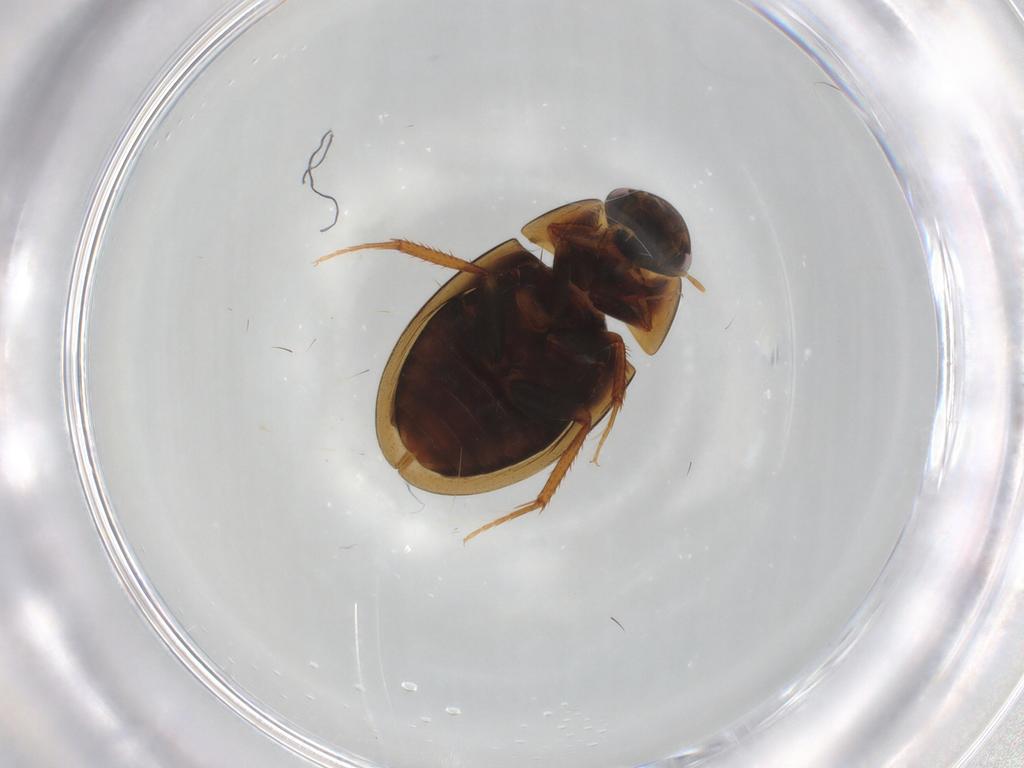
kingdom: Animalia
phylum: Arthropoda
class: Insecta
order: Coleoptera
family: Hydrophilidae
